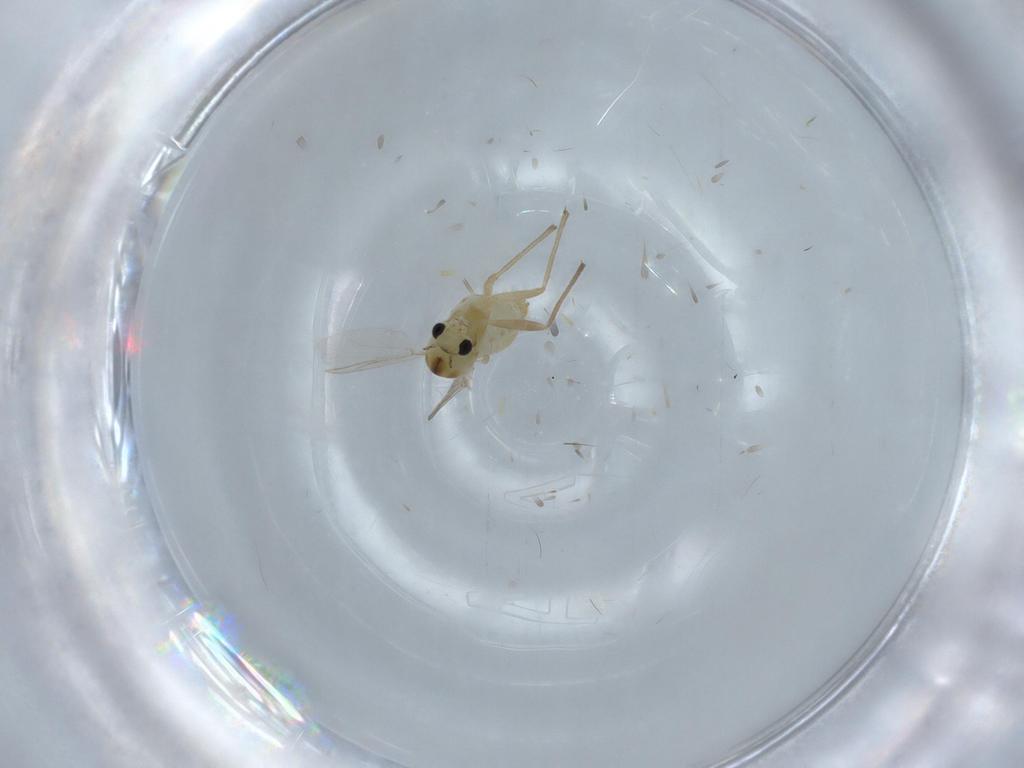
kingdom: Animalia
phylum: Arthropoda
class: Insecta
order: Diptera
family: Chironomidae
